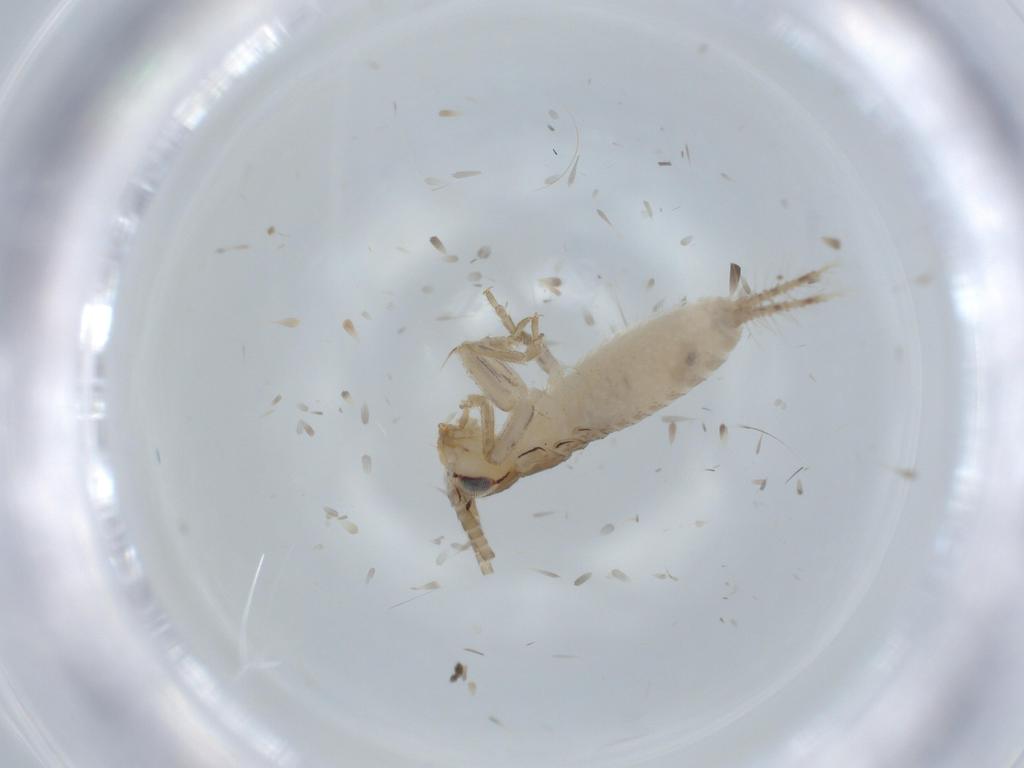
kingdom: Animalia
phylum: Arthropoda
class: Insecta
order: Orthoptera
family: Gryllidae
